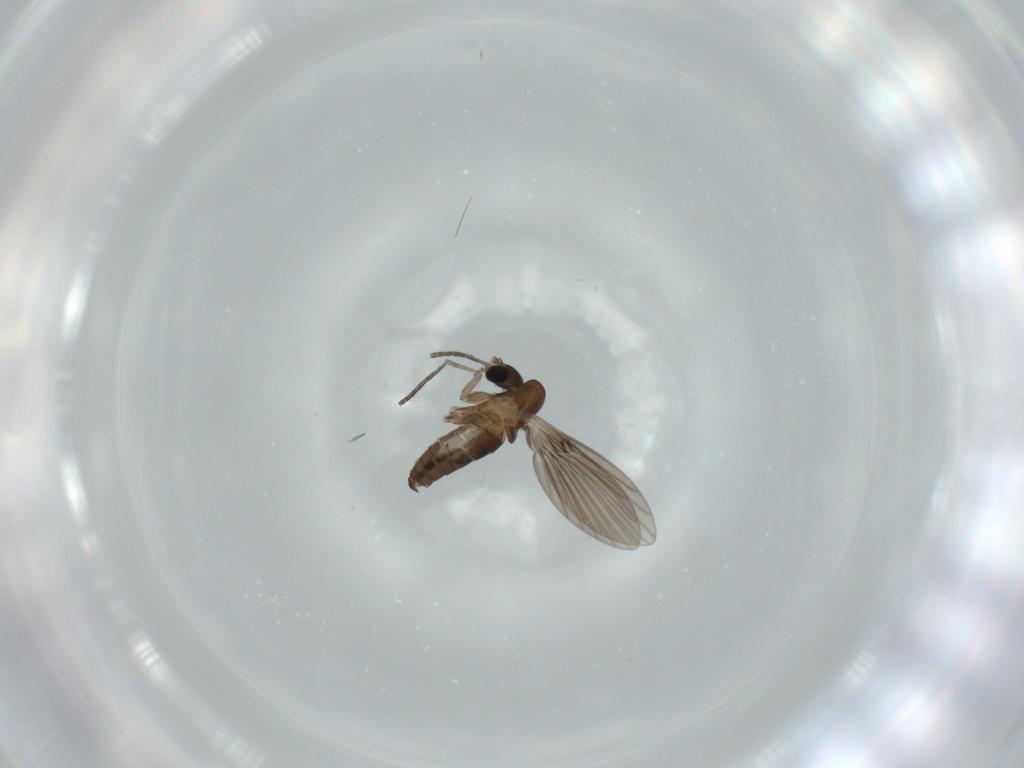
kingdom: Animalia
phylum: Arthropoda
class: Insecta
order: Diptera
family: Psychodidae
